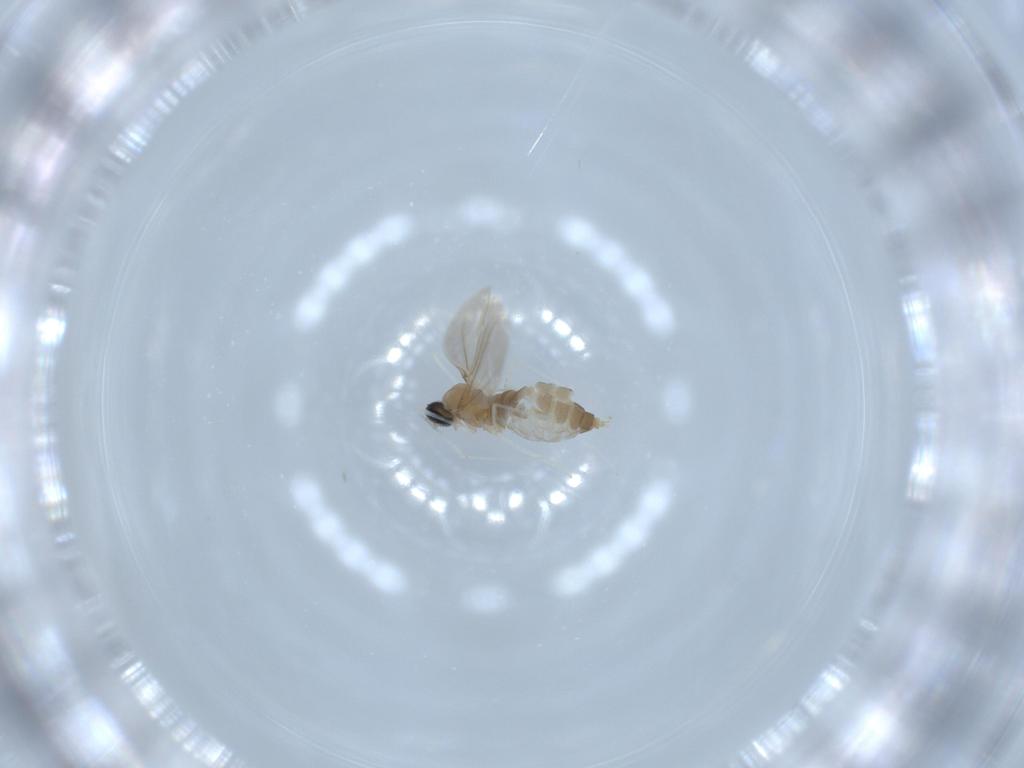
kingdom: Animalia
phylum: Arthropoda
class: Insecta
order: Diptera
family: Cecidomyiidae
